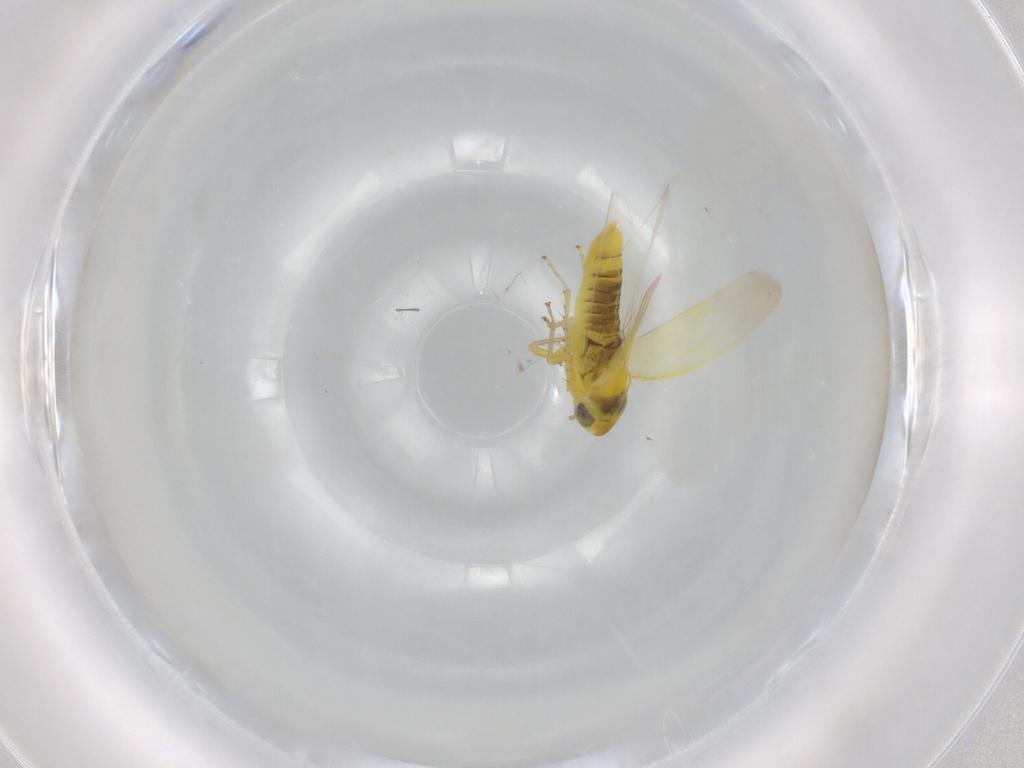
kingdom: Animalia
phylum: Arthropoda
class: Insecta
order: Hemiptera
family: Cicadellidae
